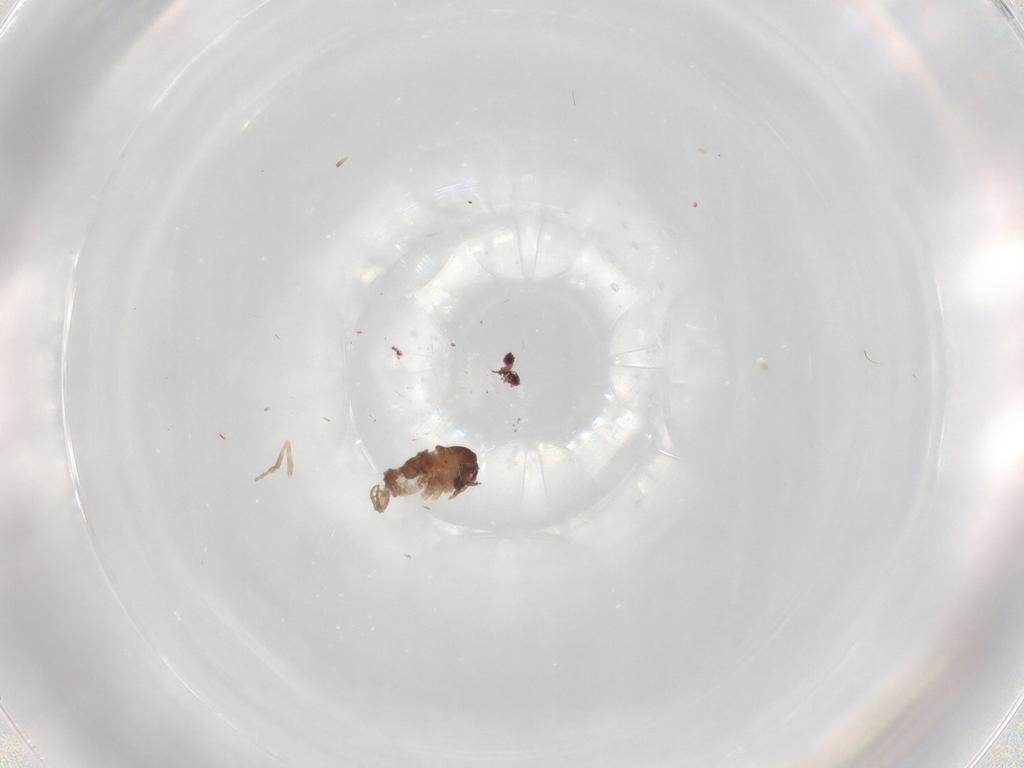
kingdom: Animalia
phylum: Arthropoda
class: Insecta
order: Diptera
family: Psychodidae
